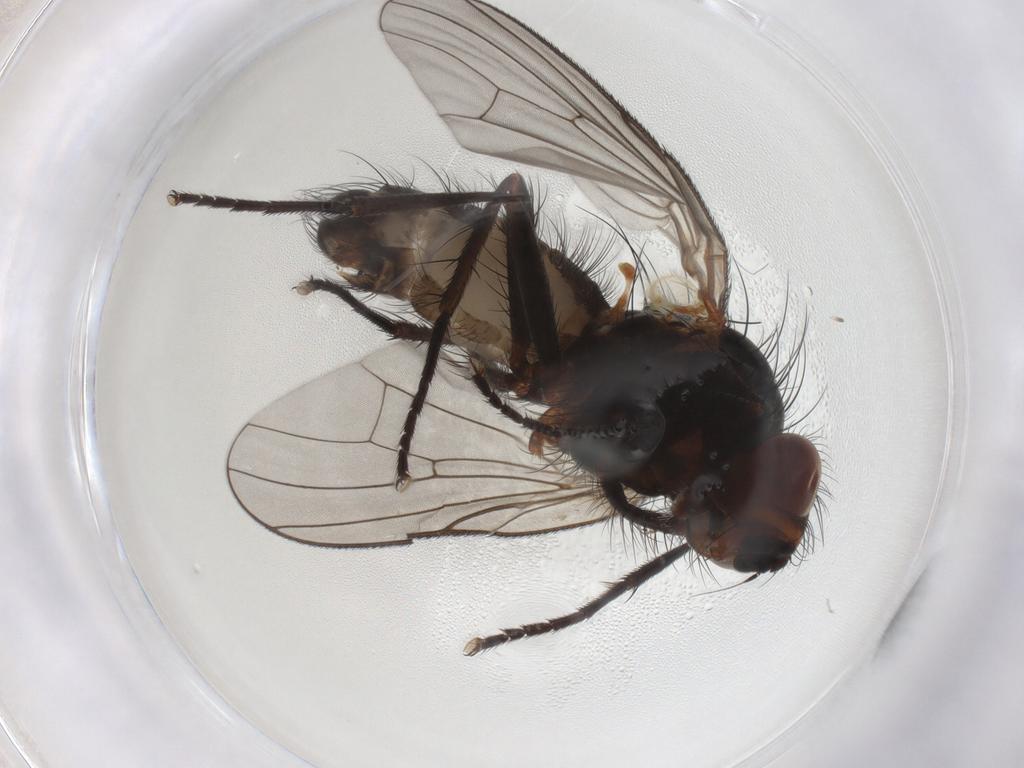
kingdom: Animalia
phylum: Arthropoda
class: Insecta
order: Diptera
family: Anthomyiidae
